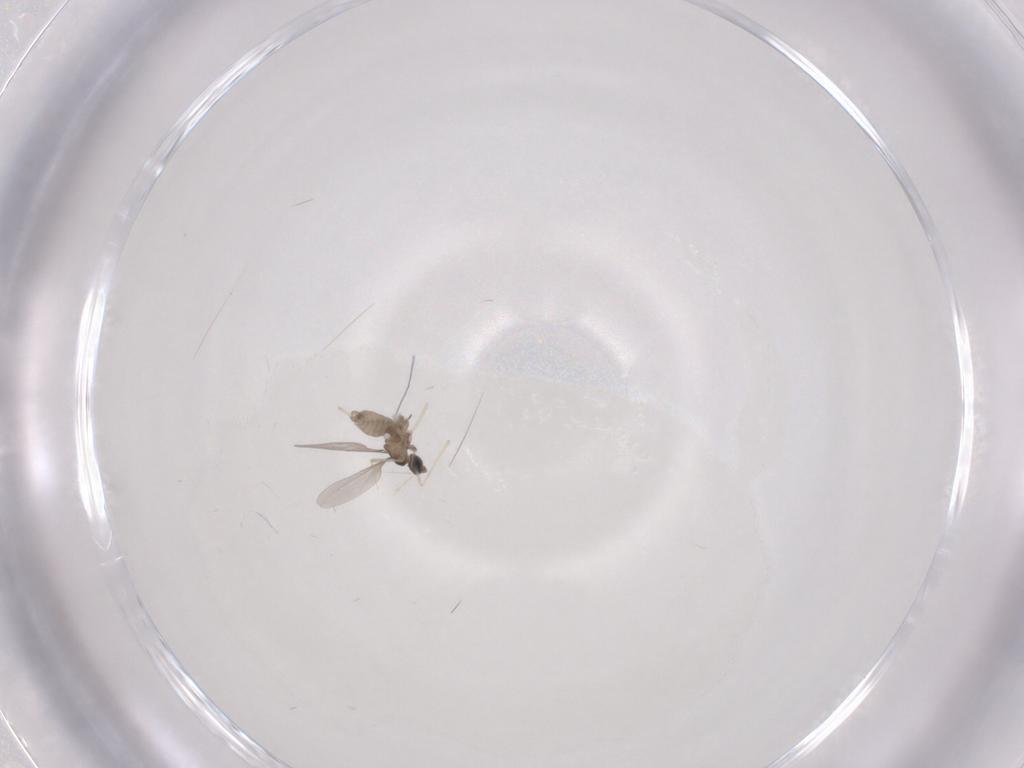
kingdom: Animalia
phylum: Arthropoda
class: Insecta
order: Diptera
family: Cecidomyiidae
